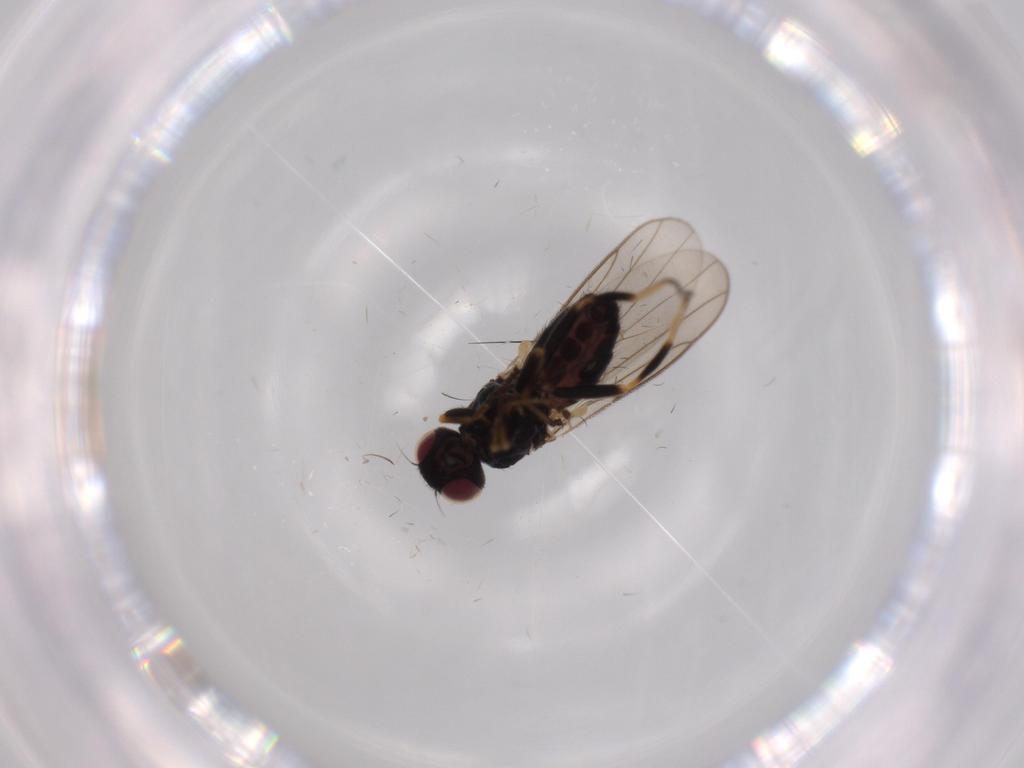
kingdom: Animalia
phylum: Arthropoda
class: Insecta
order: Diptera
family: Chloropidae
